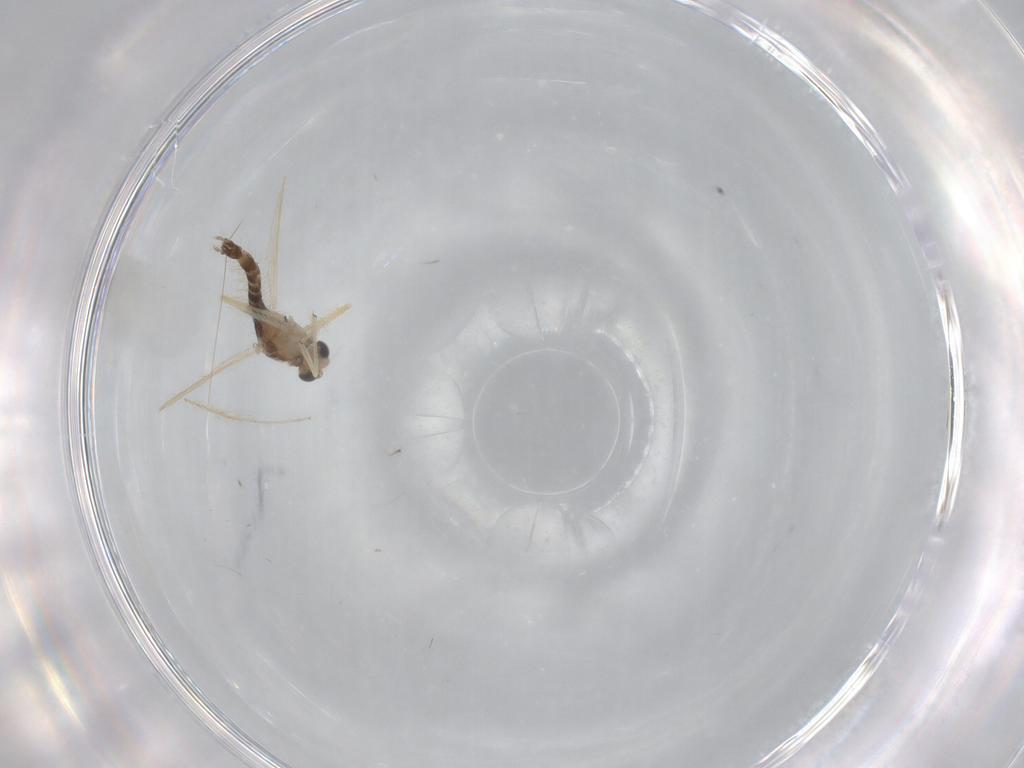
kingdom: Animalia
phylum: Arthropoda
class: Insecta
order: Diptera
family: Chironomidae
